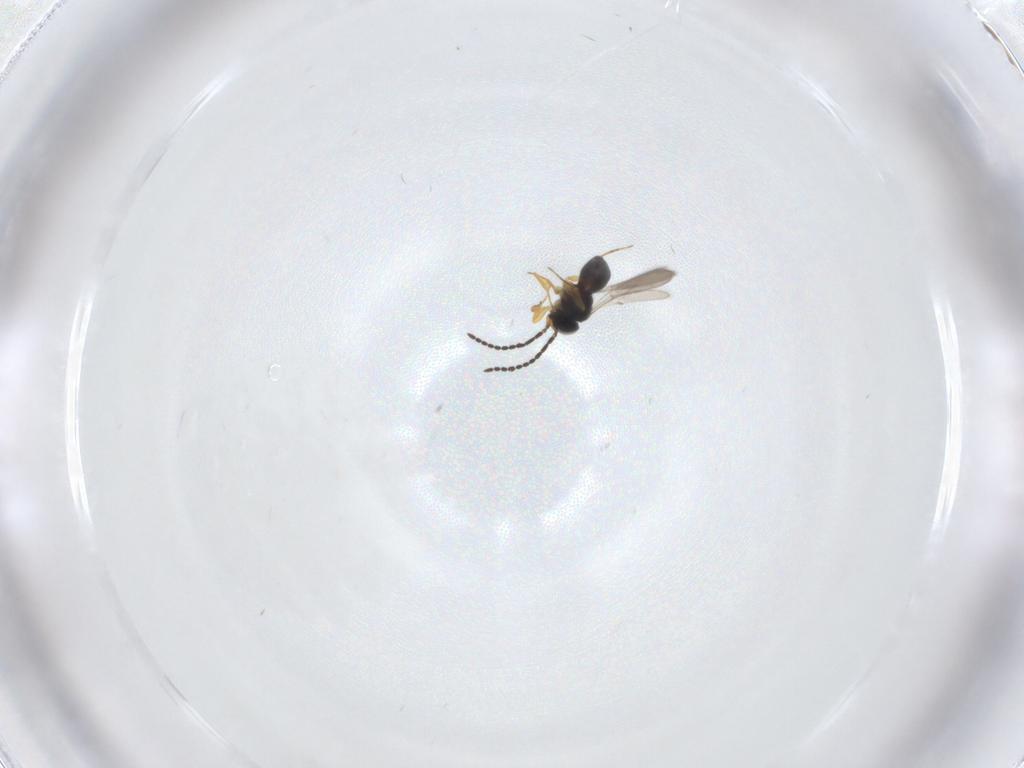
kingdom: Animalia
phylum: Arthropoda
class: Insecta
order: Hymenoptera
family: Scelionidae
